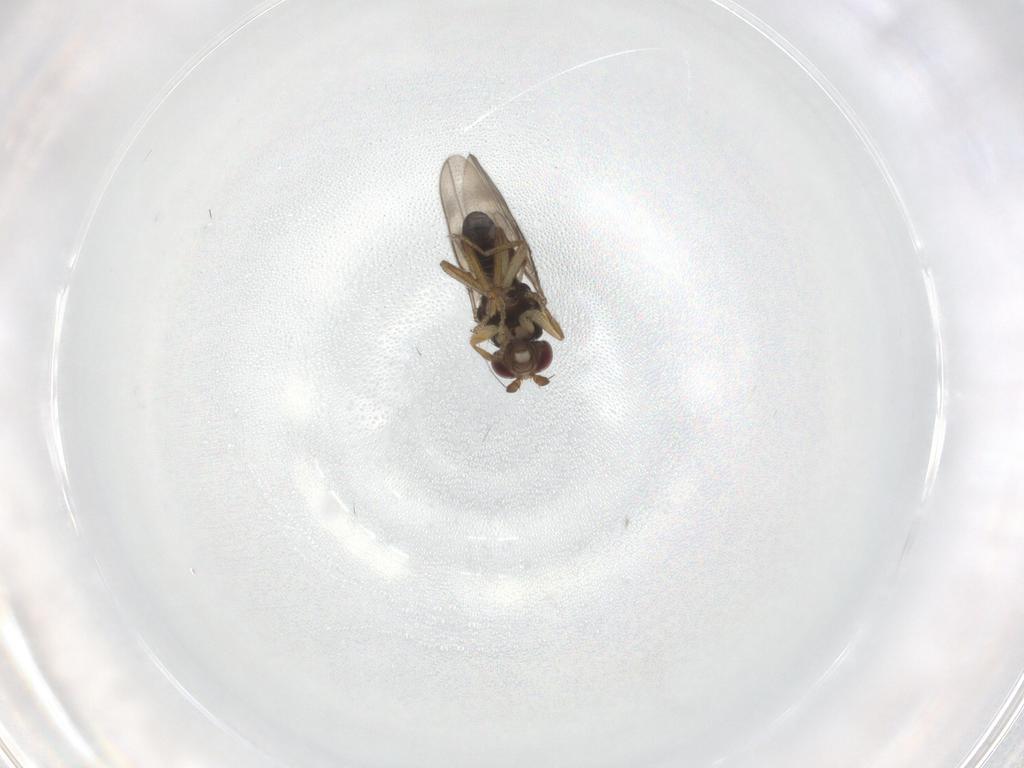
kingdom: Animalia
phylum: Arthropoda
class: Insecta
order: Diptera
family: Sphaeroceridae
